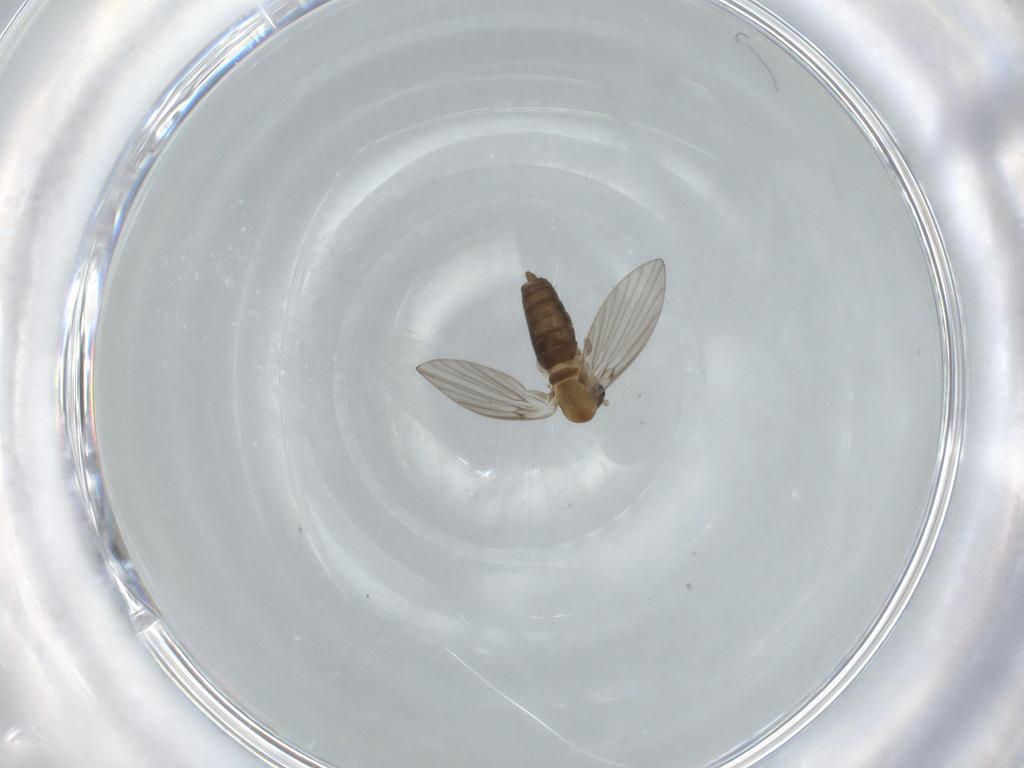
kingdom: Animalia
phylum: Arthropoda
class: Insecta
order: Diptera
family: Psychodidae
